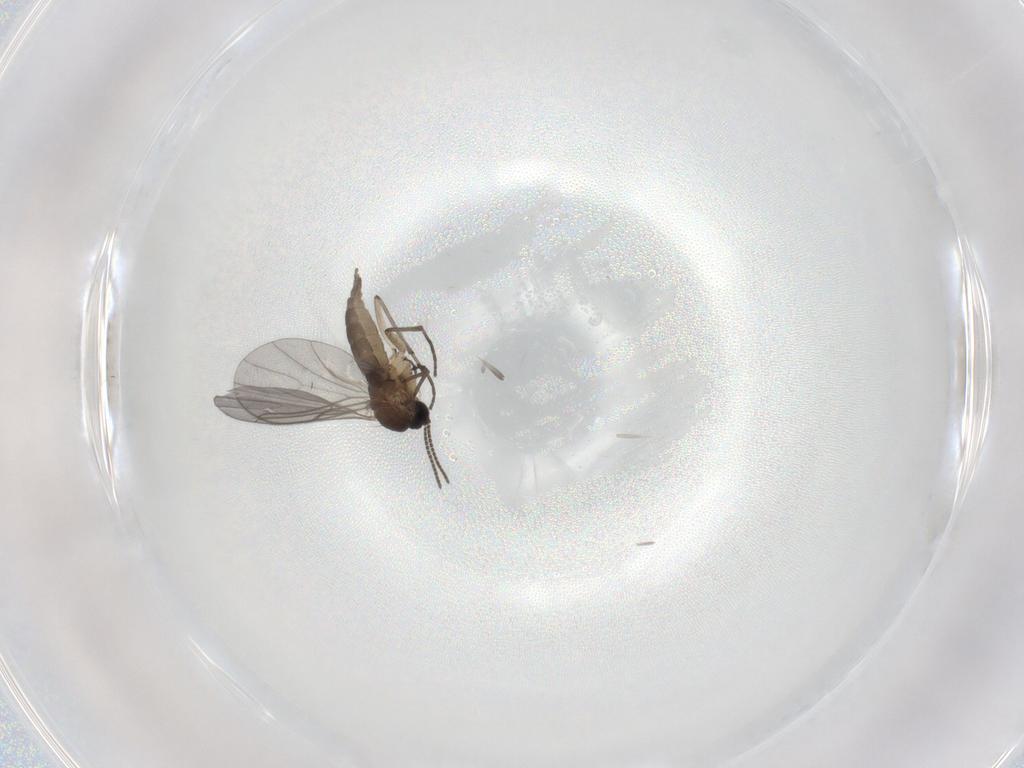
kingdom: Animalia
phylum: Arthropoda
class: Insecta
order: Diptera
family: Sciaridae
